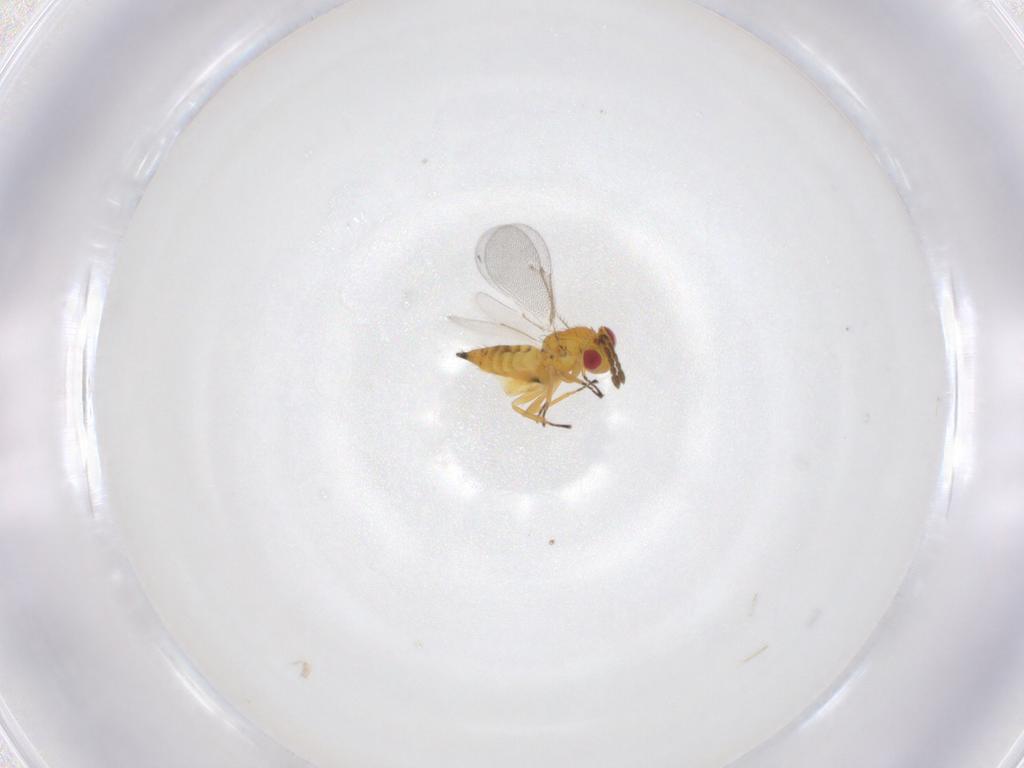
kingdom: Animalia
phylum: Arthropoda
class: Insecta
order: Hymenoptera
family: Eulophidae
